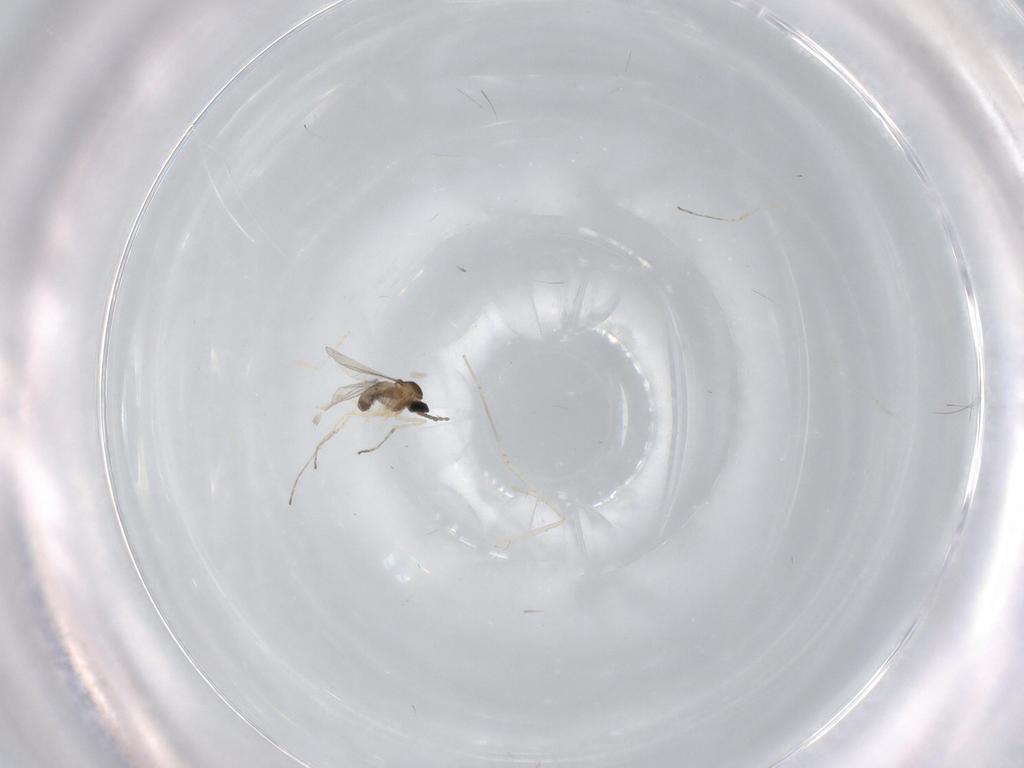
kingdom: Animalia
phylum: Arthropoda
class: Insecta
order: Diptera
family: Cecidomyiidae
